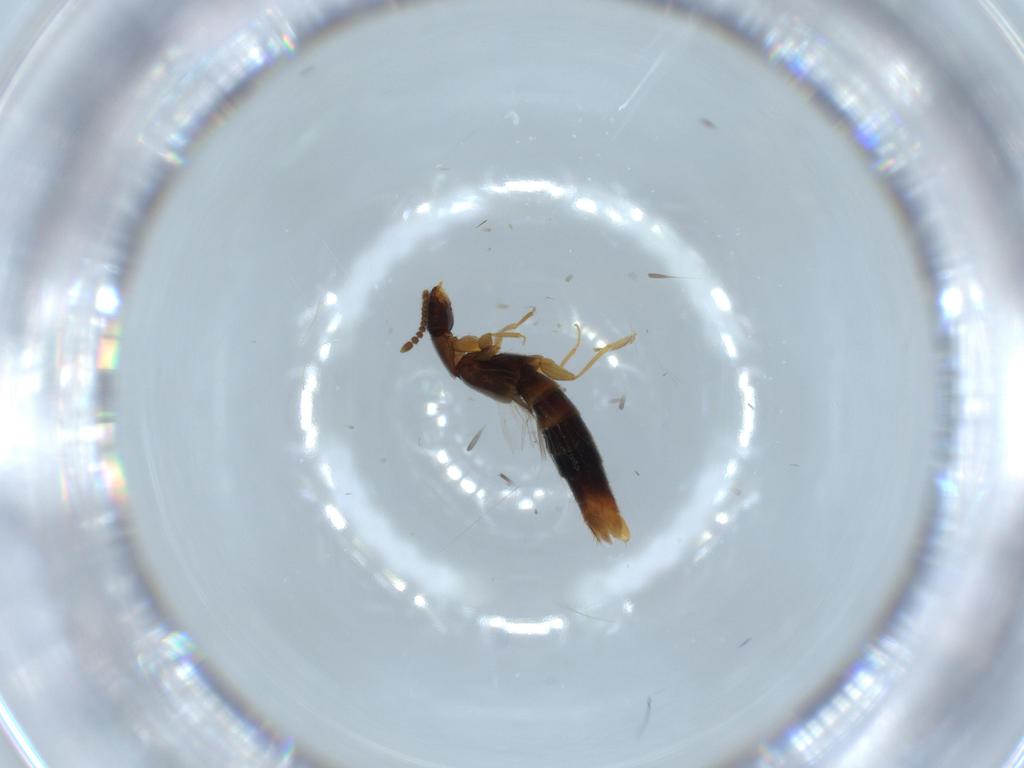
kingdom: Animalia
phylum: Arthropoda
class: Insecta
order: Coleoptera
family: Staphylinidae
